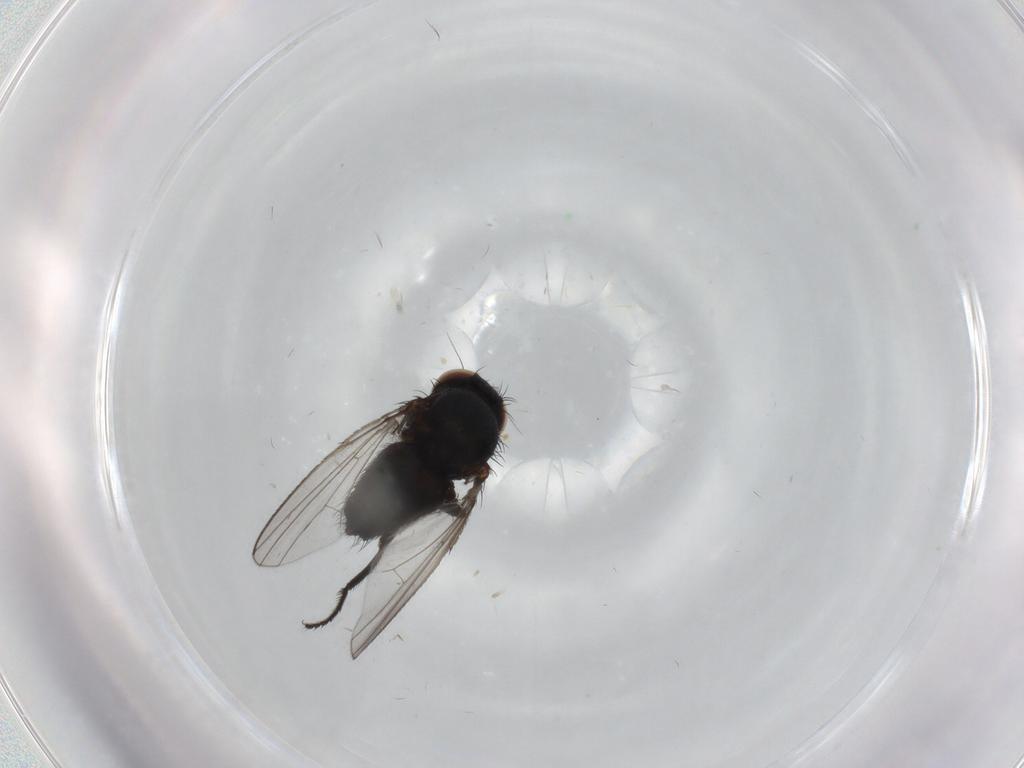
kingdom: Animalia
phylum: Arthropoda
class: Insecta
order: Diptera
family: Milichiidae
